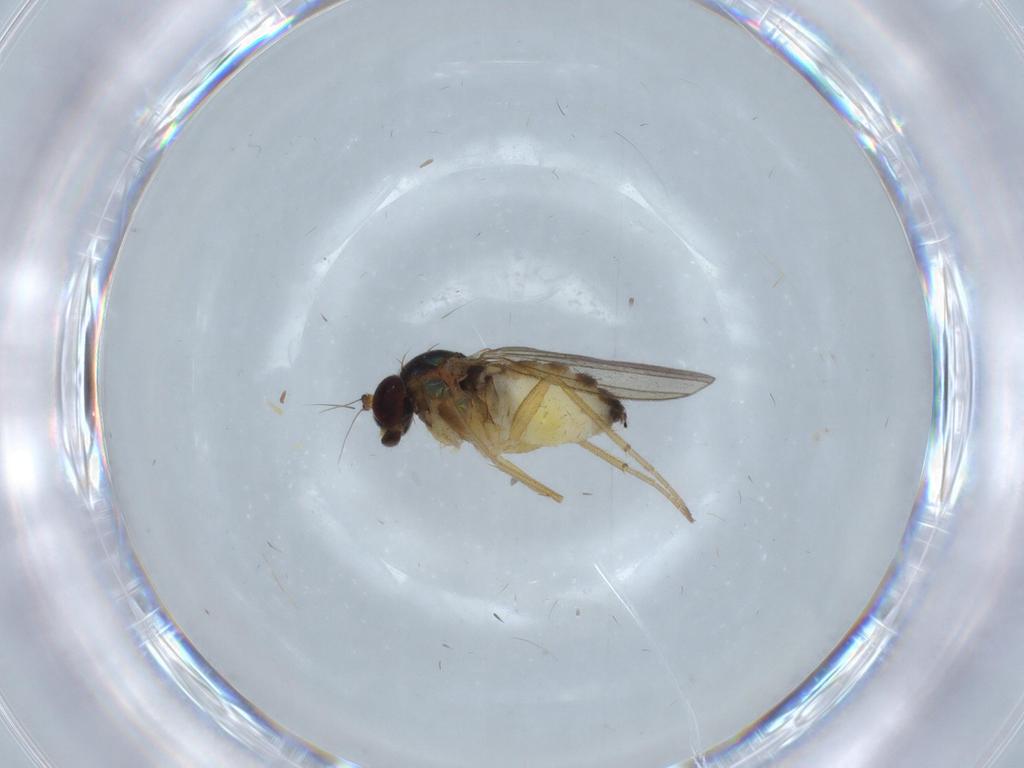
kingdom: Animalia
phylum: Arthropoda
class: Insecta
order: Diptera
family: Dolichopodidae
